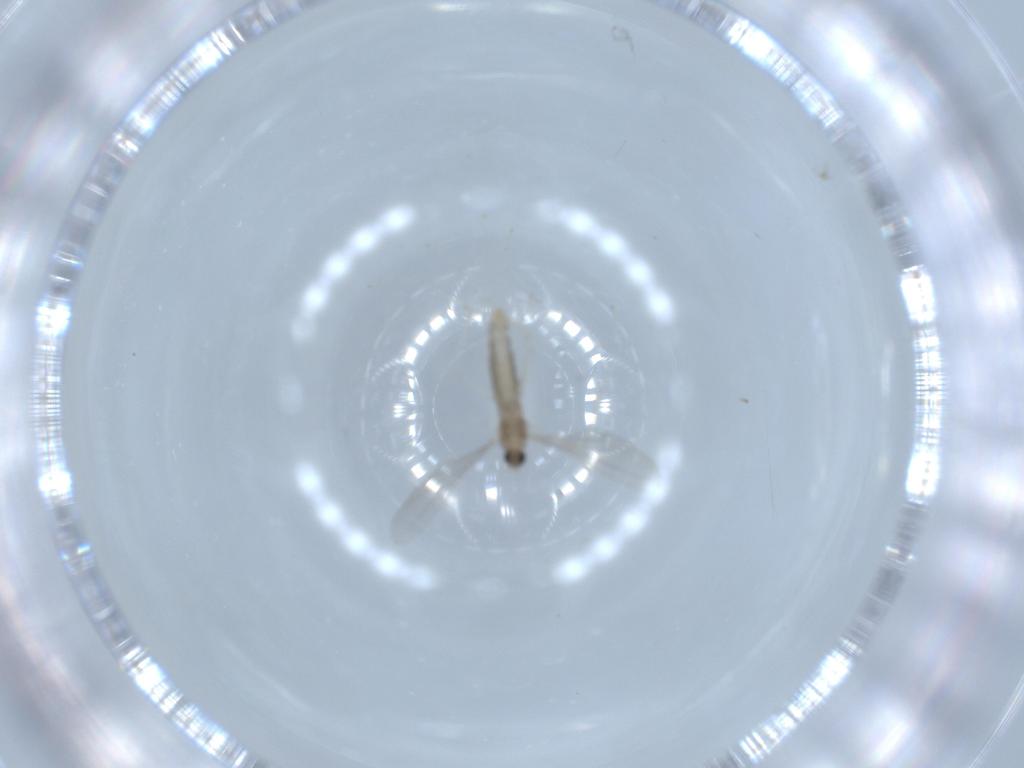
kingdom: Animalia
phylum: Arthropoda
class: Insecta
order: Diptera
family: Cecidomyiidae
